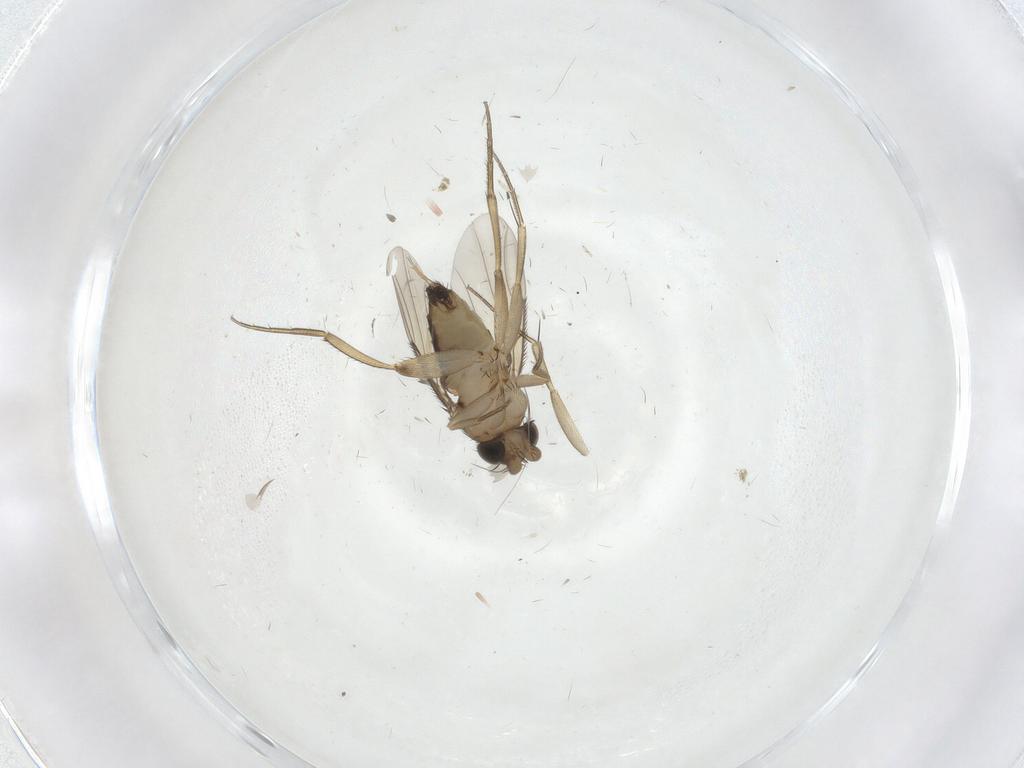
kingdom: Animalia
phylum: Arthropoda
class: Insecta
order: Diptera
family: Phoridae
